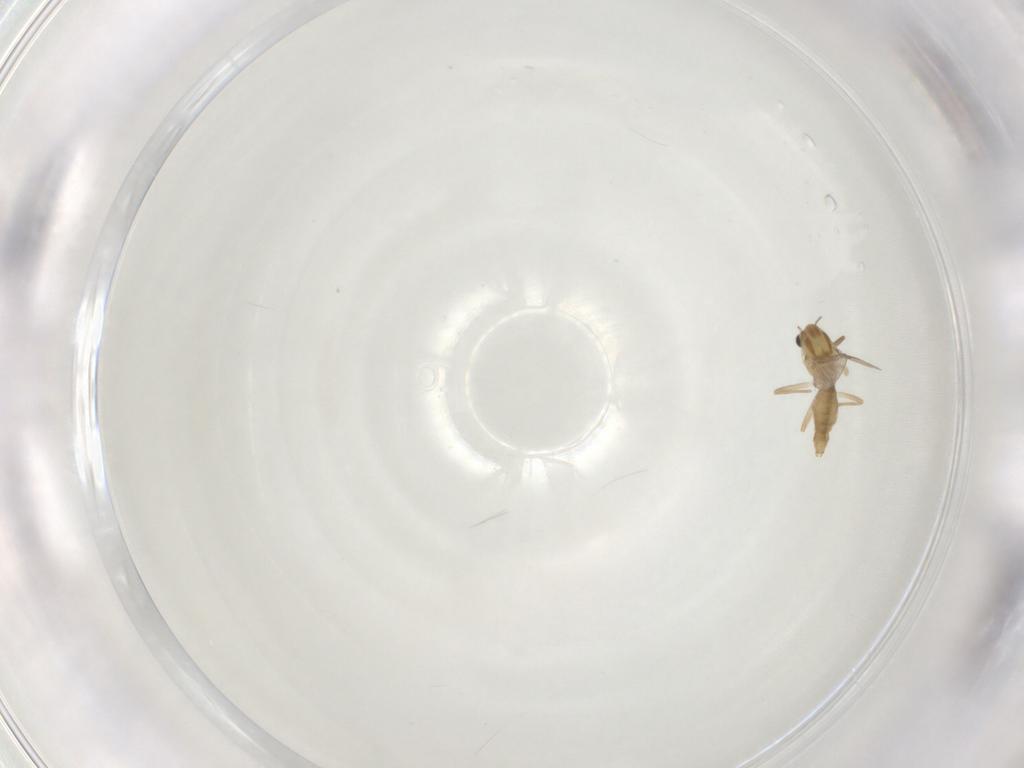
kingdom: Animalia
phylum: Arthropoda
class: Insecta
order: Diptera
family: Chironomidae
